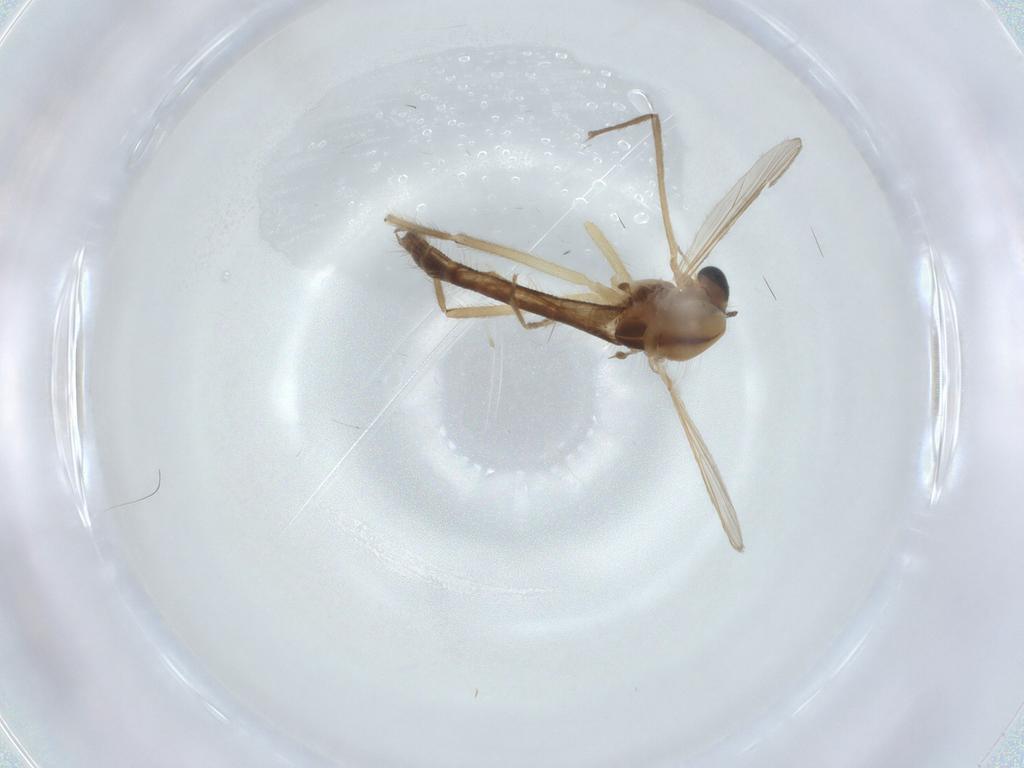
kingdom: Animalia
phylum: Arthropoda
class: Insecta
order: Diptera
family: Chironomidae
